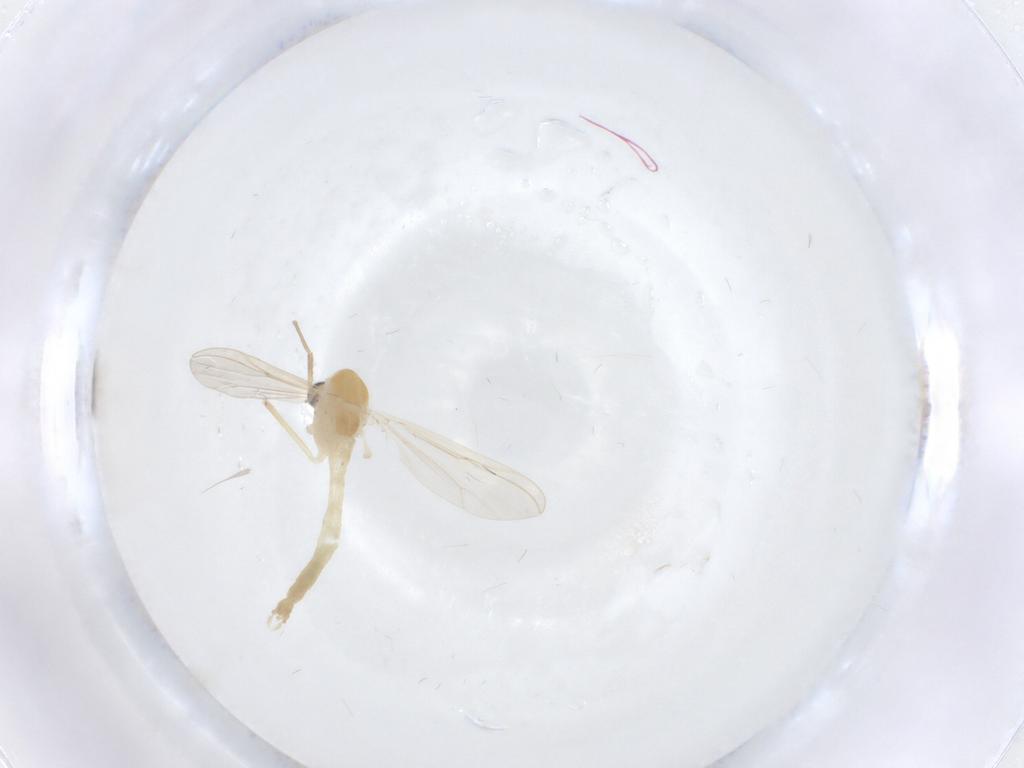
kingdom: Animalia
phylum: Arthropoda
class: Insecta
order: Diptera
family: Chironomidae
